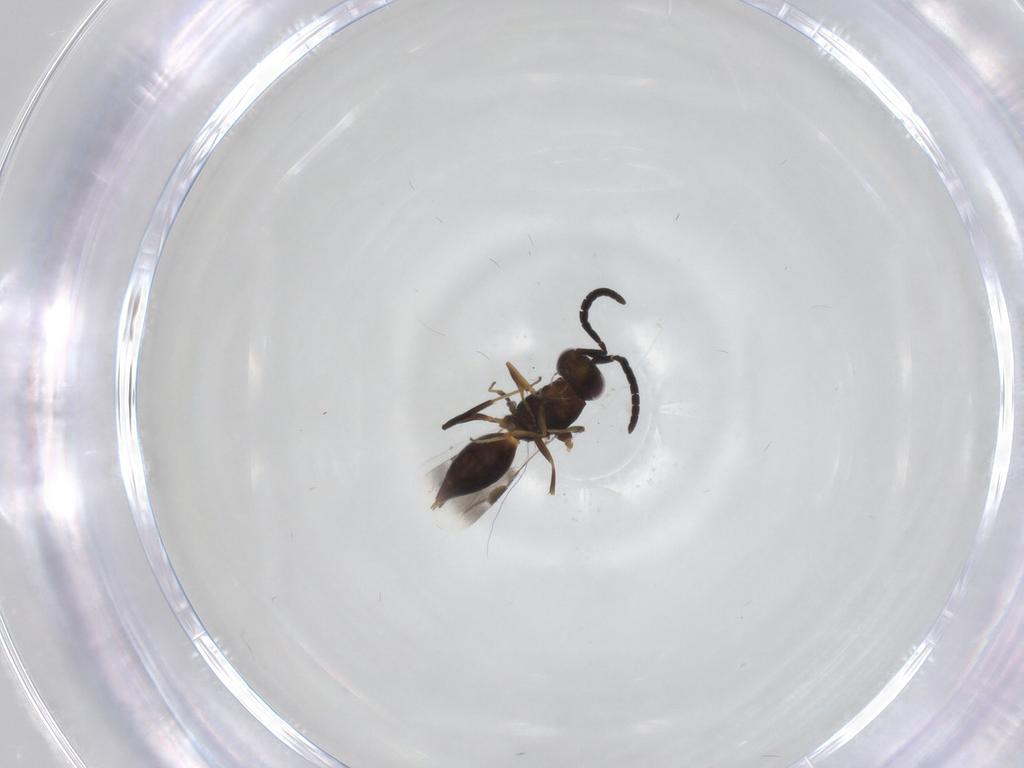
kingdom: Animalia
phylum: Arthropoda
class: Insecta
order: Hymenoptera
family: Megaspilidae
